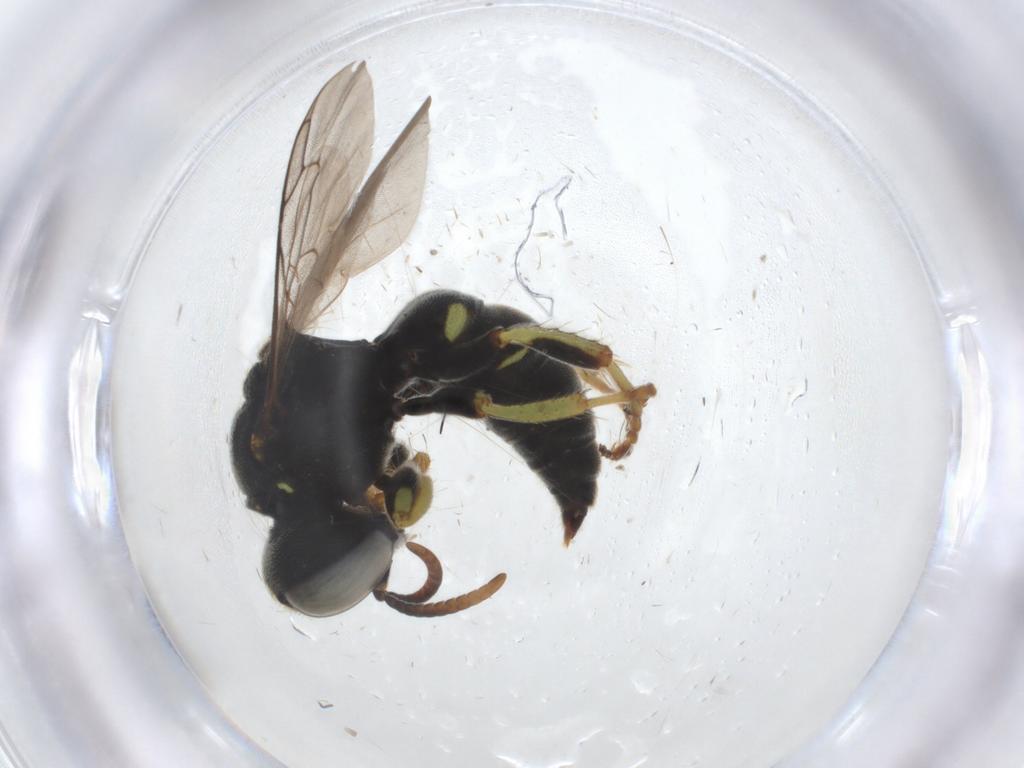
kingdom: Animalia
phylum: Arthropoda
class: Insecta
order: Hymenoptera
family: Crabronidae
